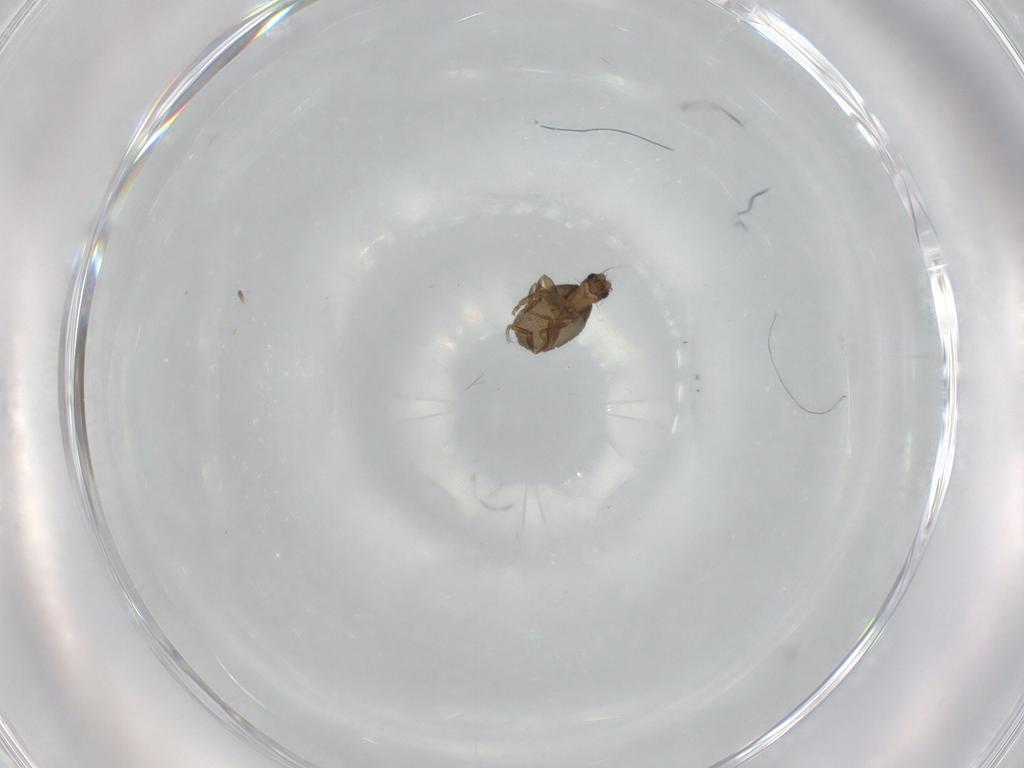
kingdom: Animalia
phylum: Arthropoda
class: Insecta
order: Diptera
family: Phoridae
